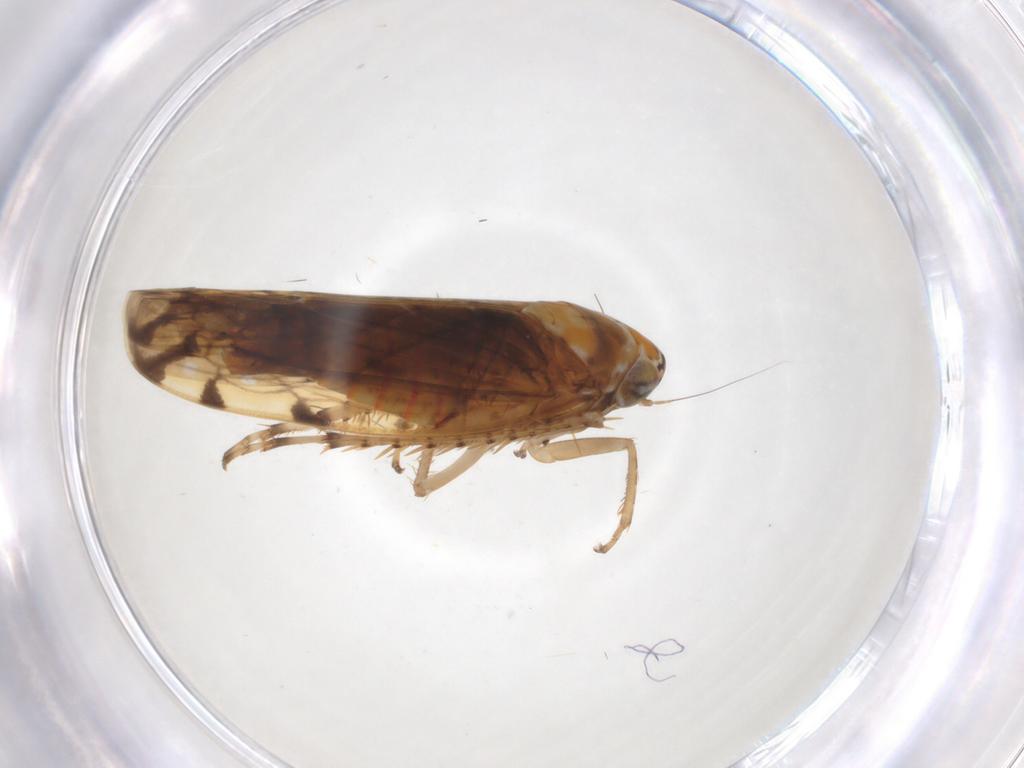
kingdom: Animalia
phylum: Arthropoda
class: Insecta
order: Hemiptera
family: Cicadellidae
